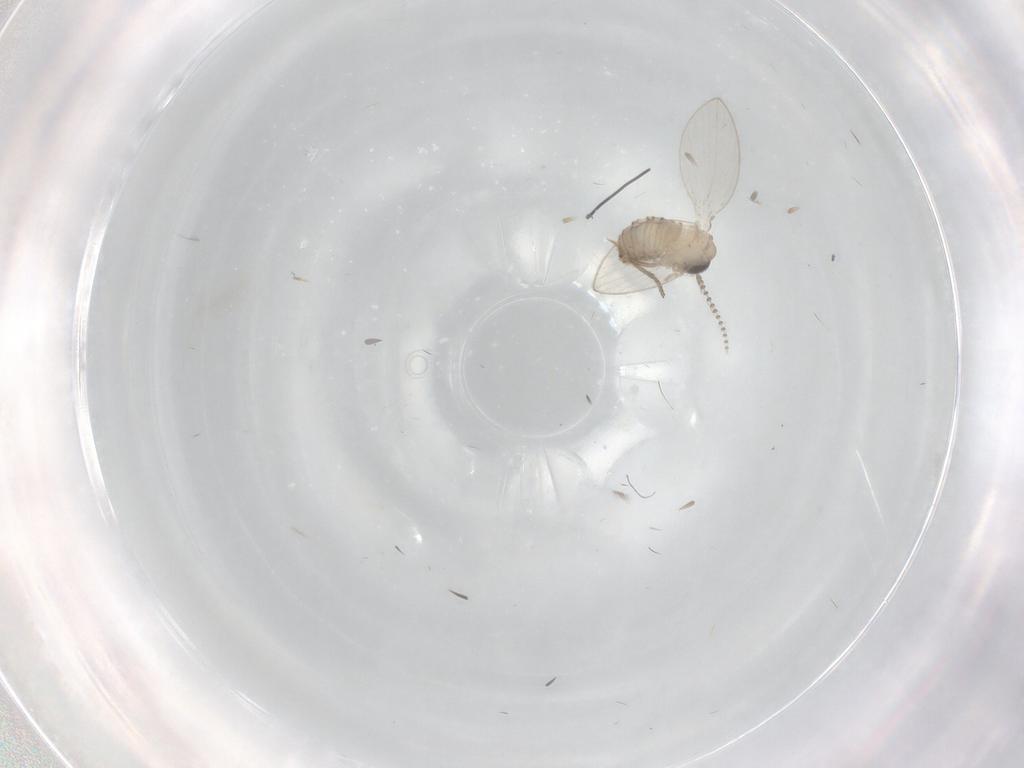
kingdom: Animalia
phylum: Arthropoda
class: Insecta
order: Diptera
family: Psychodidae
